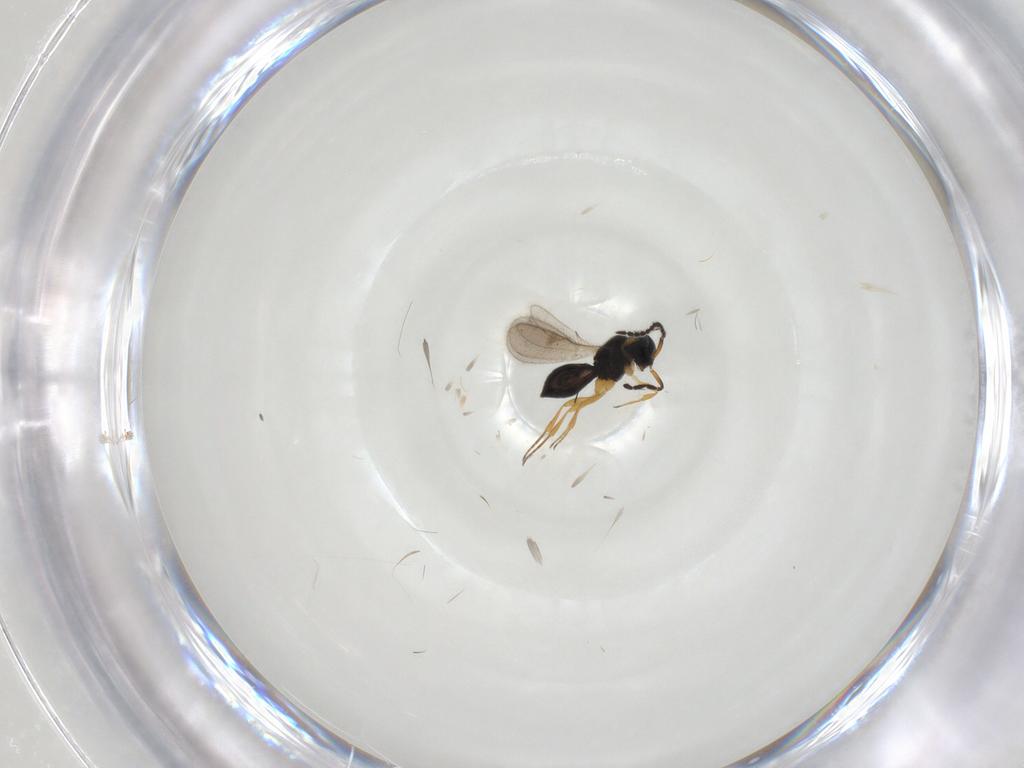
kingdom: Animalia
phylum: Arthropoda
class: Insecta
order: Hymenoptera
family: Scelionidae
